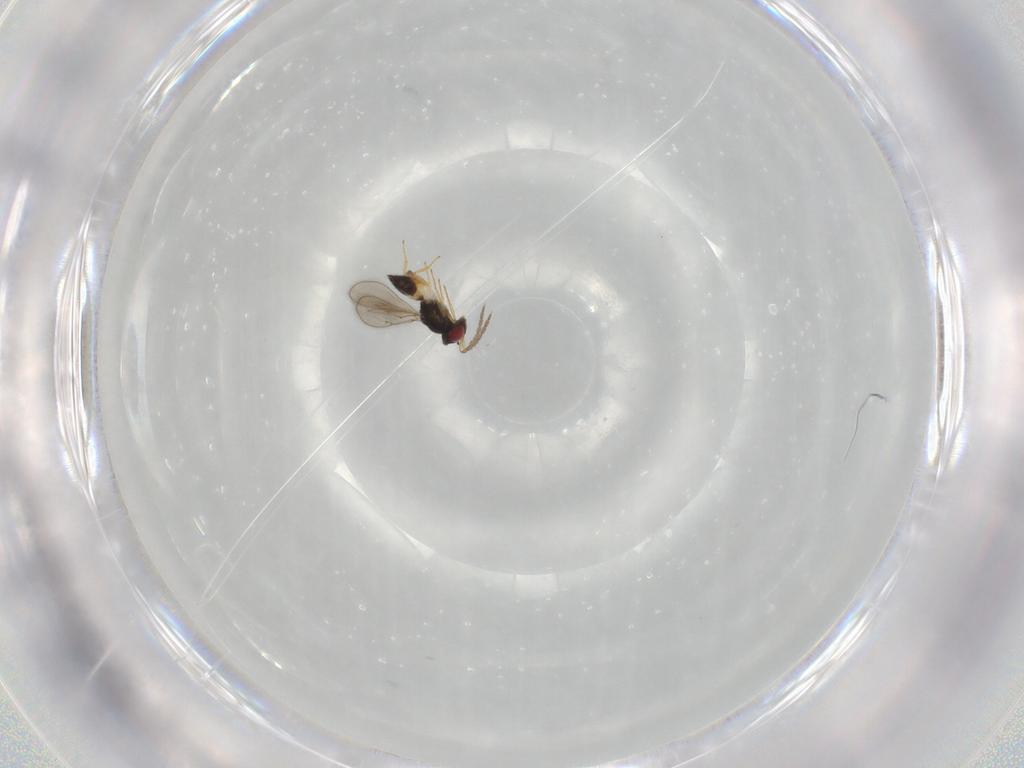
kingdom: Animalia
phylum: Arthropoda
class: Insecta
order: Hymenoptera
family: Eulophidae
